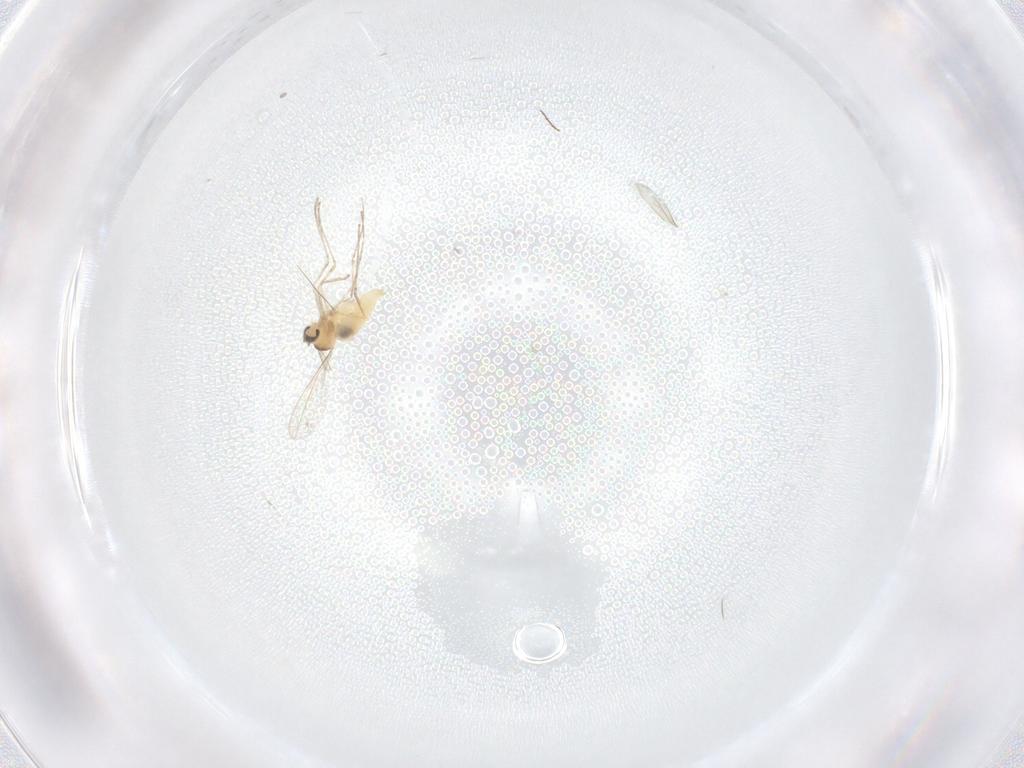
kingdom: Animalia
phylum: Arthropoda
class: Insecta
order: Diptera
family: Cecidomyiidae
